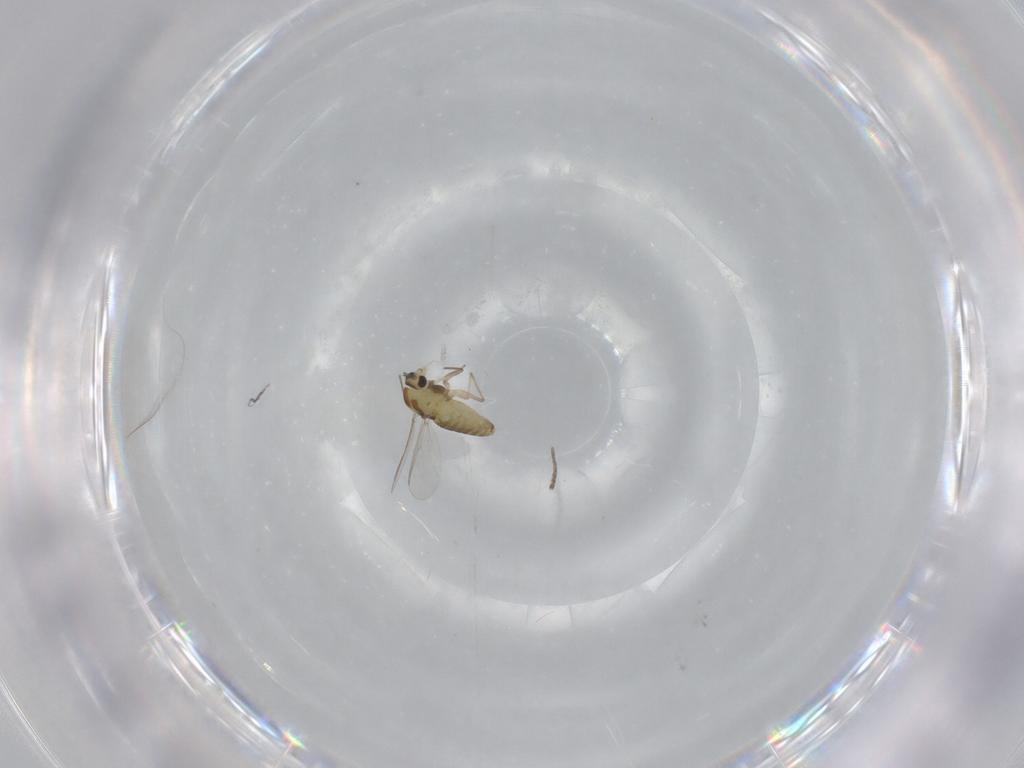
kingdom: Animalia
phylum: Arthropoda
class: Insecta
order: Diptera
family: Chironomidae
